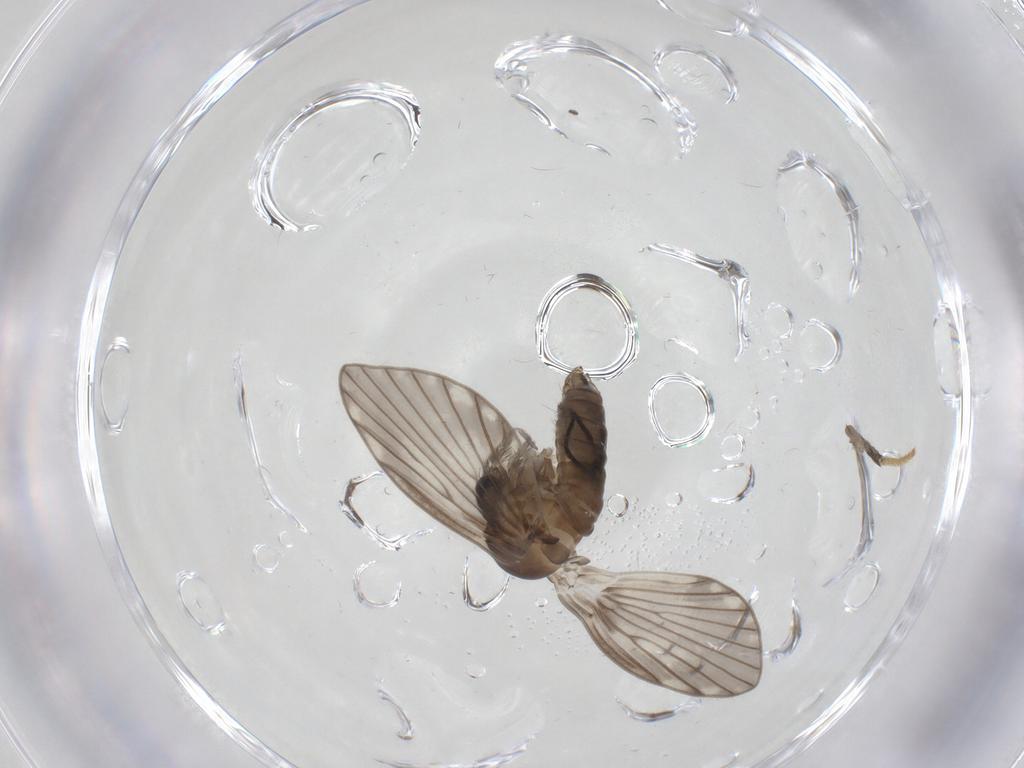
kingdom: Animalia
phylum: Arthropoda
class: Insecta
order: Diptera
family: Psychodidae
